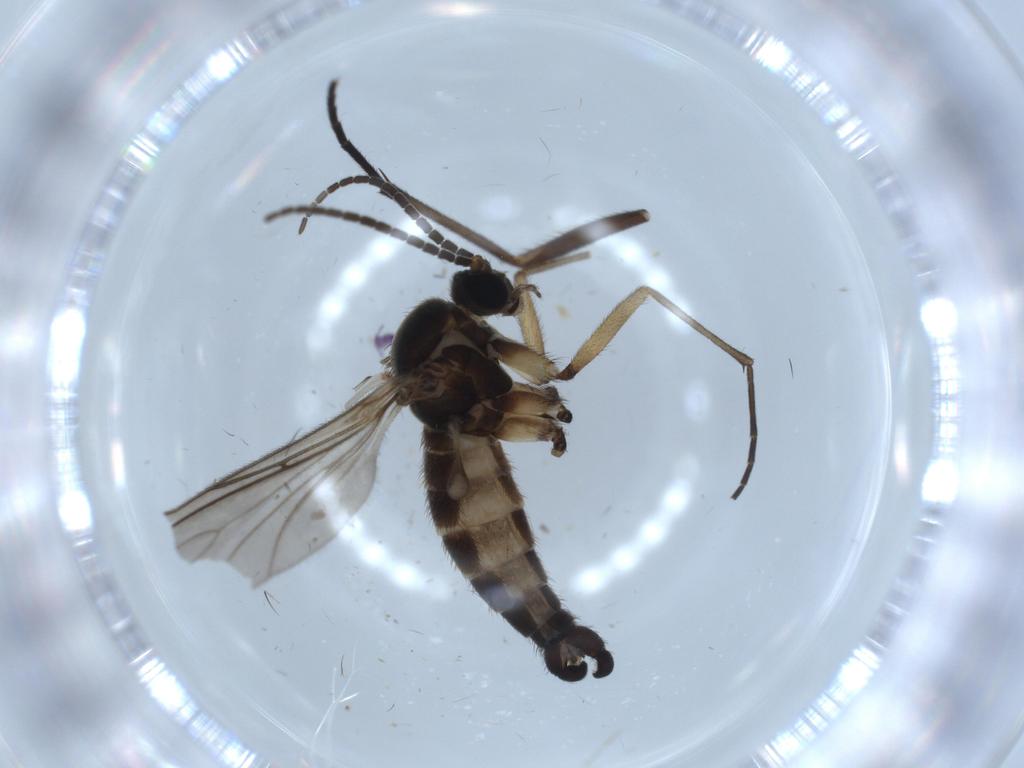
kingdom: Animalia
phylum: Arthropoda
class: Insecta
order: Diptera
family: Sciaridae
